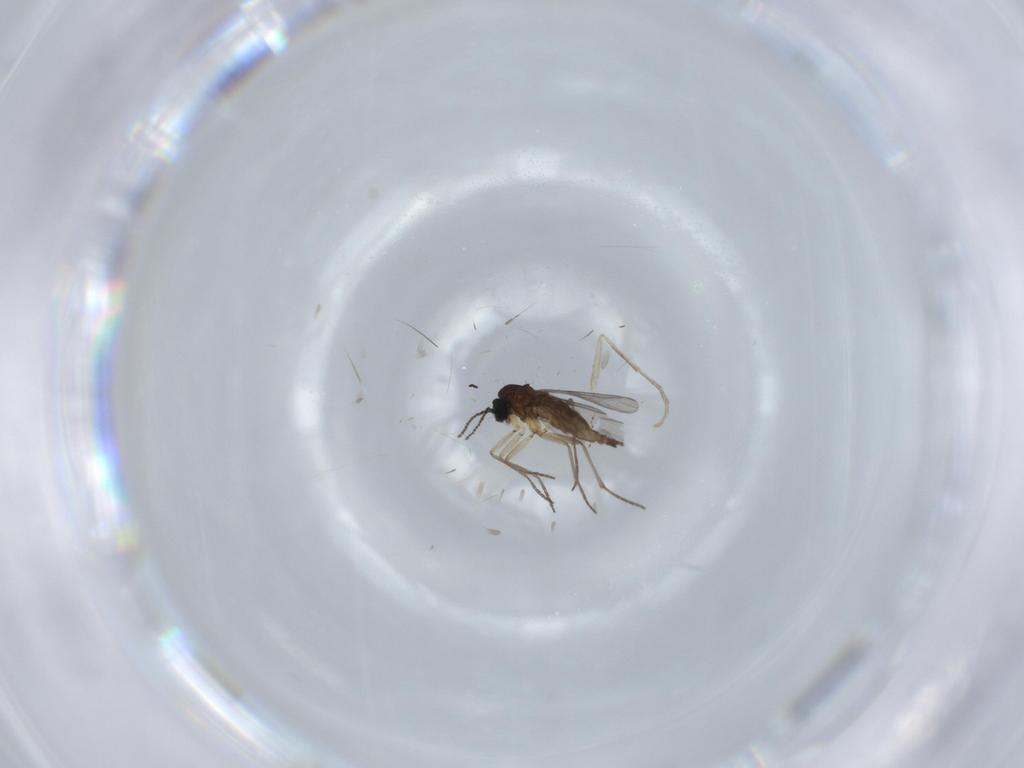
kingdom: Animalia
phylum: Arthropoda
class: Insecta
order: Diptera
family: Sciaridae
